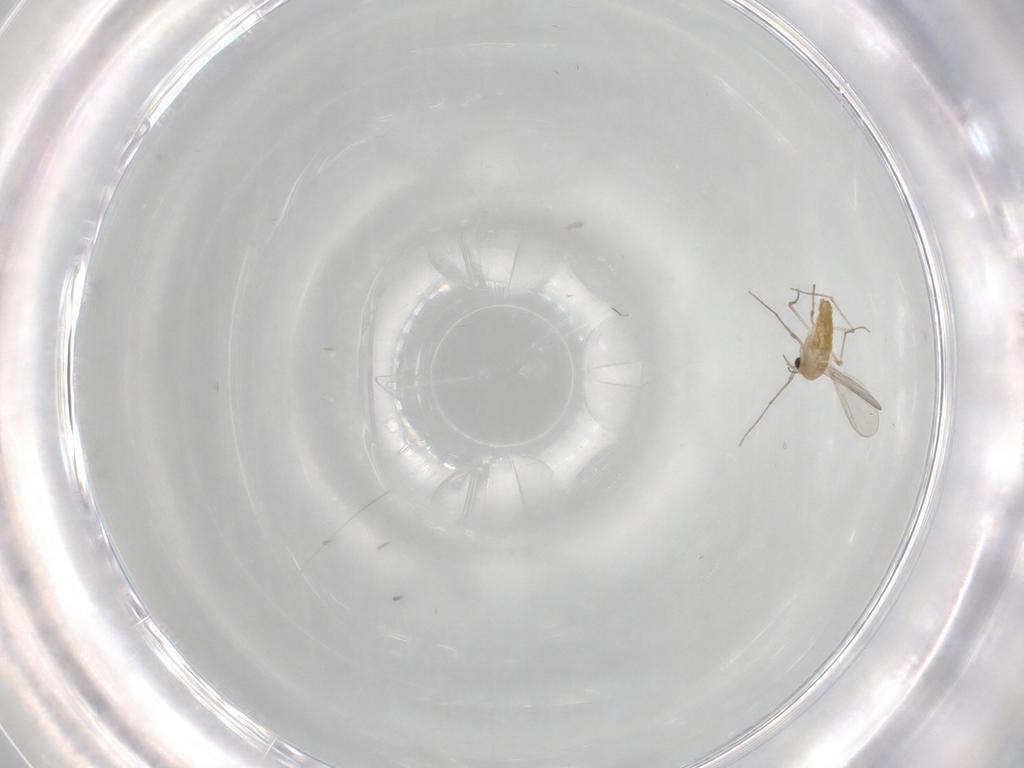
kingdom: Animalia
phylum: Arthropoda
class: Insecta
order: Diptera
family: Chironomidae
